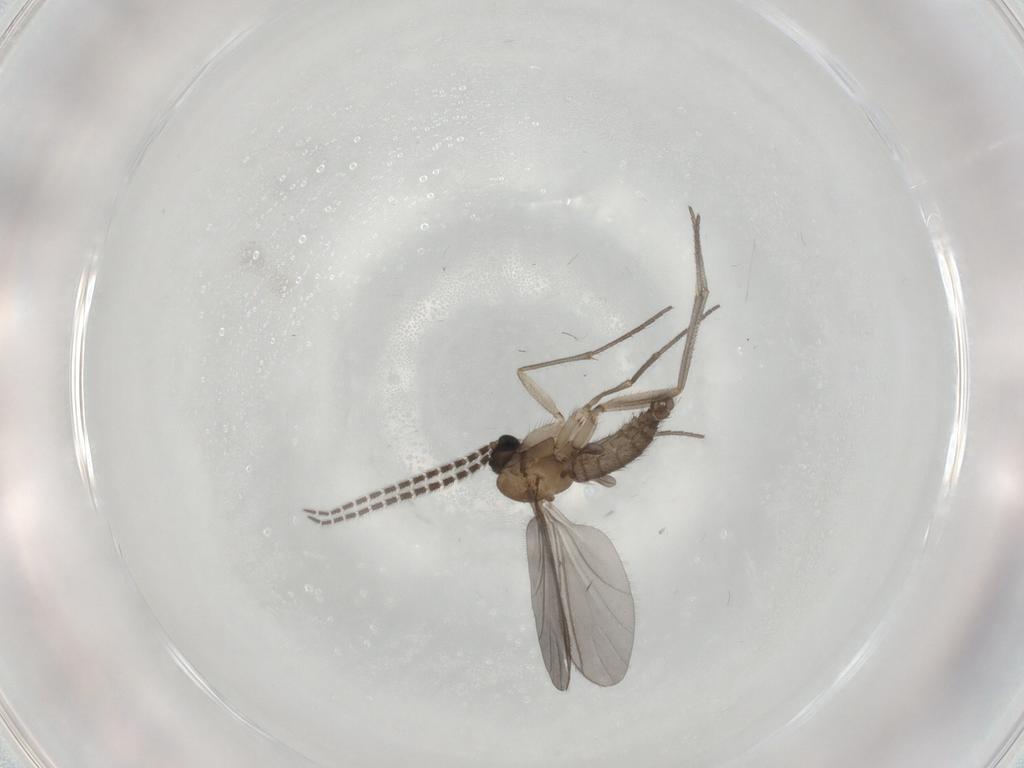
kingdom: Animalia
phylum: Arthropoda
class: Insecta
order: Diptera
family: Sciaridae
